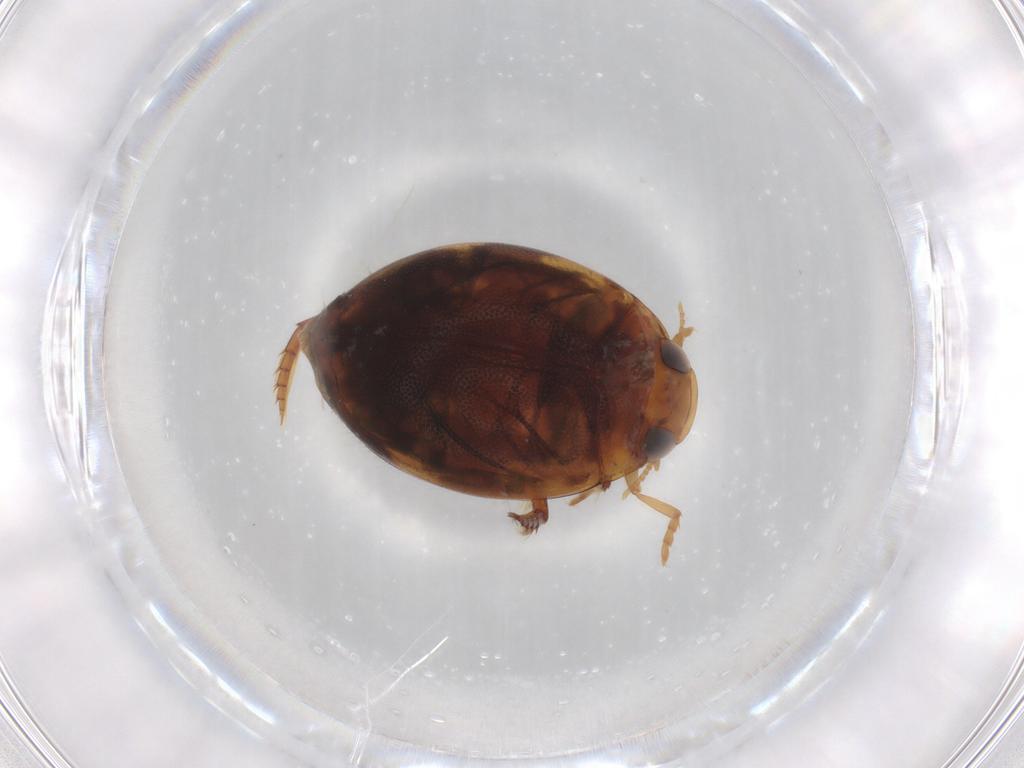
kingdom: Animalia
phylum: Arthropoda
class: Insecta
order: Coleoptera
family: Dytiscidae
